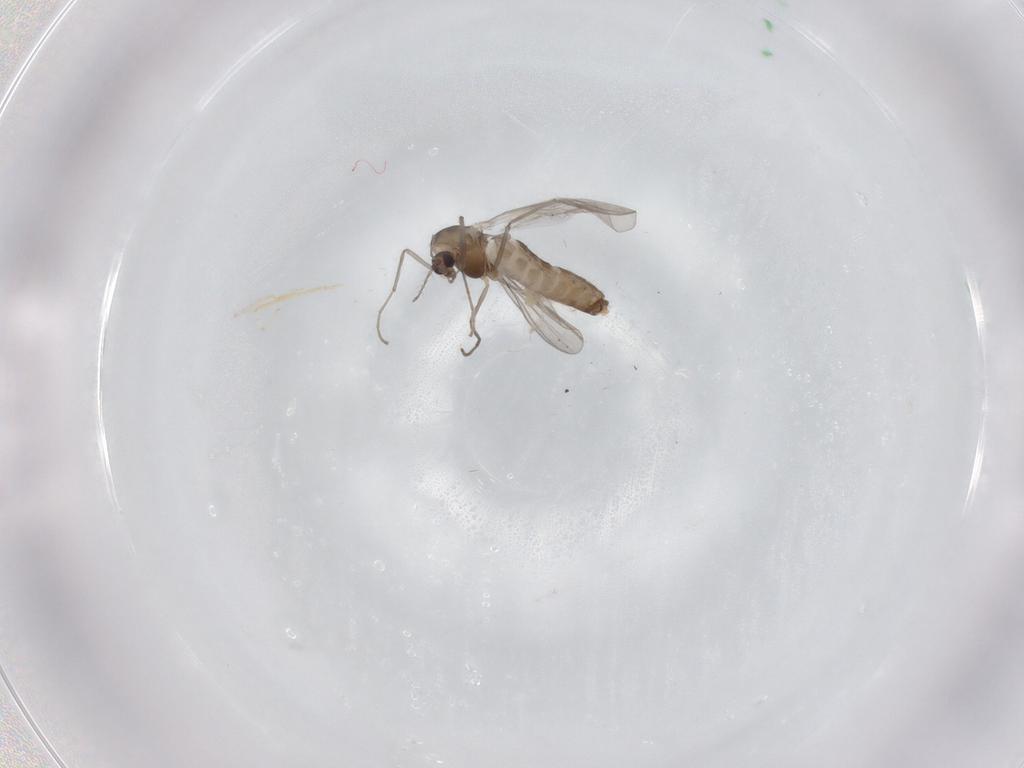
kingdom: Animalia
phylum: Arthropoda
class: Insecta
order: Diptera
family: Chironomidae
